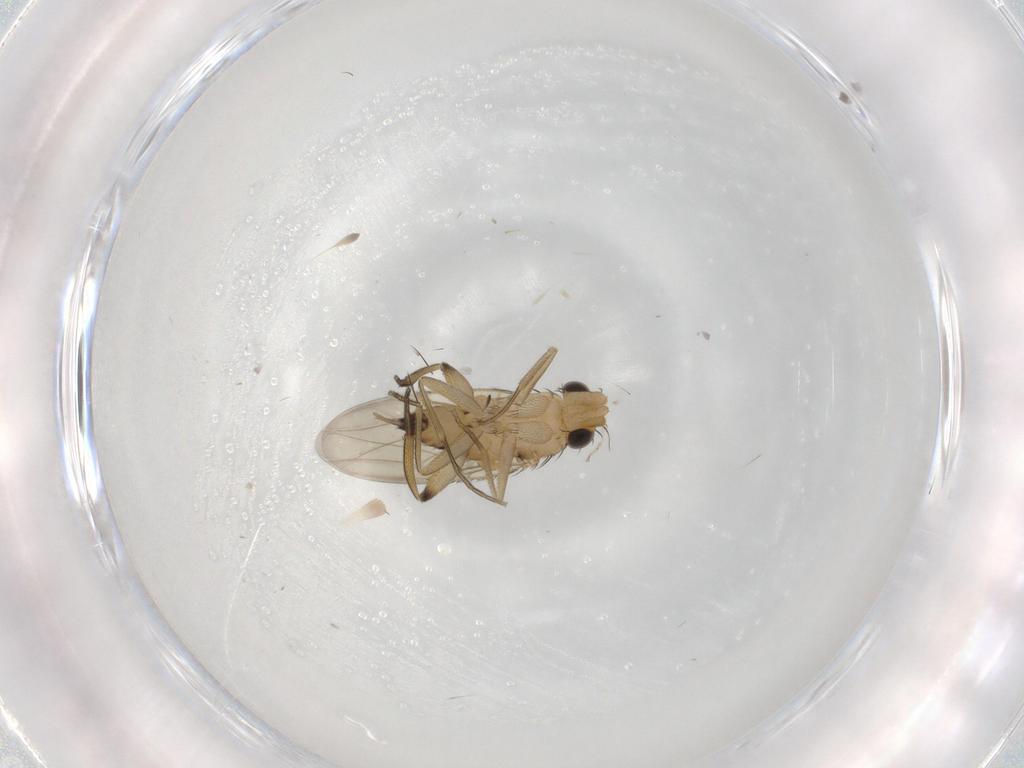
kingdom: Animalia
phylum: Arthropoda
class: Insecta
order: Diptera
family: Phoridae
